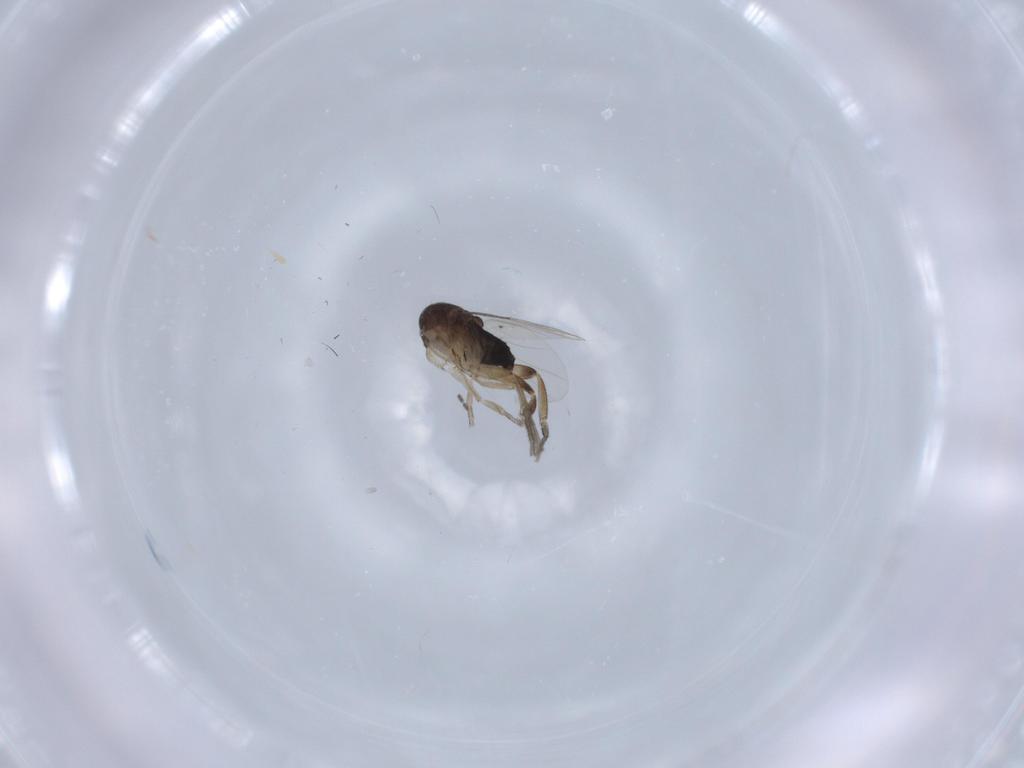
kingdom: Animalia
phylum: Arthropoda
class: Insecta
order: Diptera
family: Phoridae
